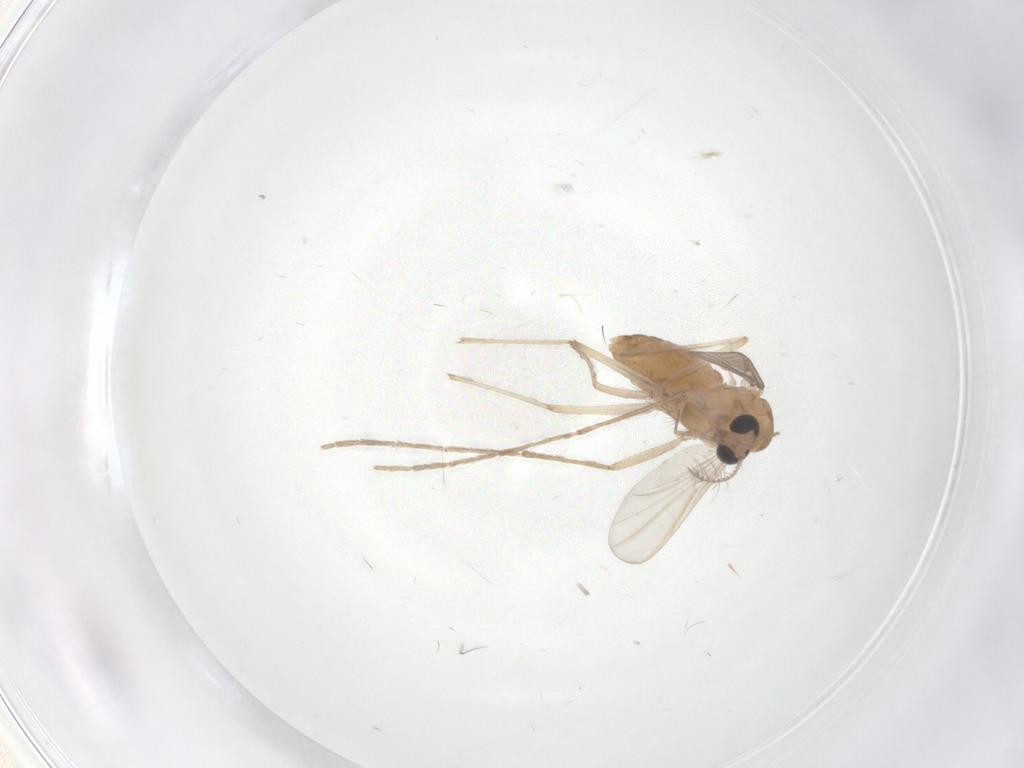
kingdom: Animalia
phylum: Arthropoda
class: Insecta
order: Diptera
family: Chironomidae
